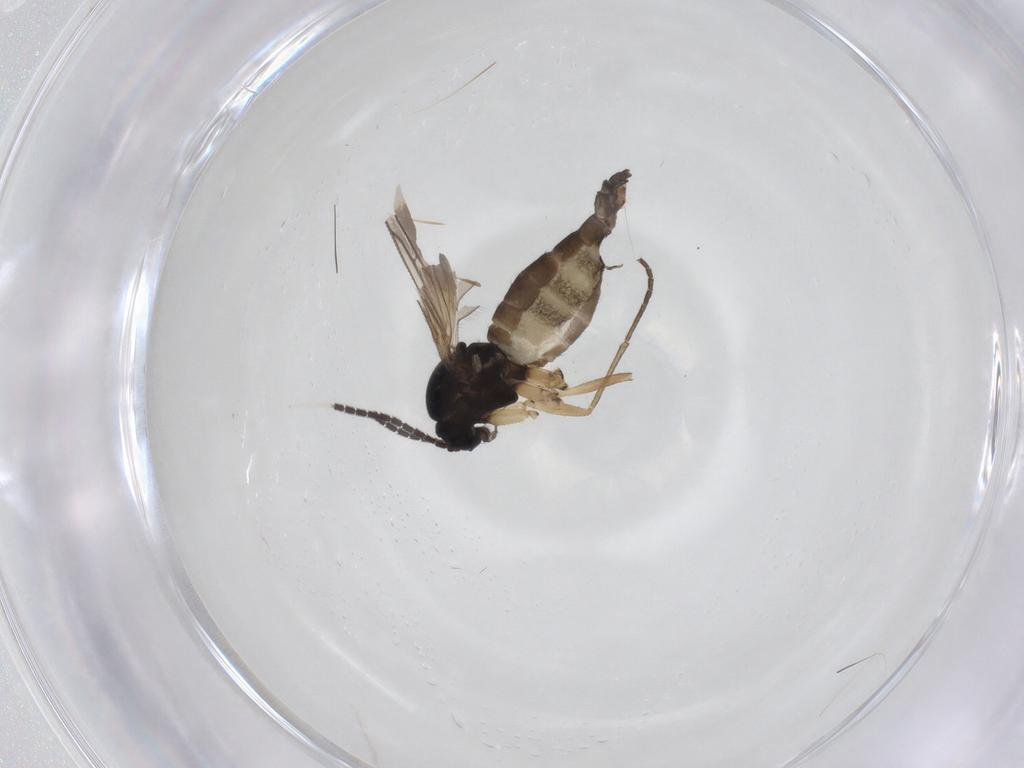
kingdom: Animalia
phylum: Arthropoda
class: Insecta
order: Diptera
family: Sciaridae
